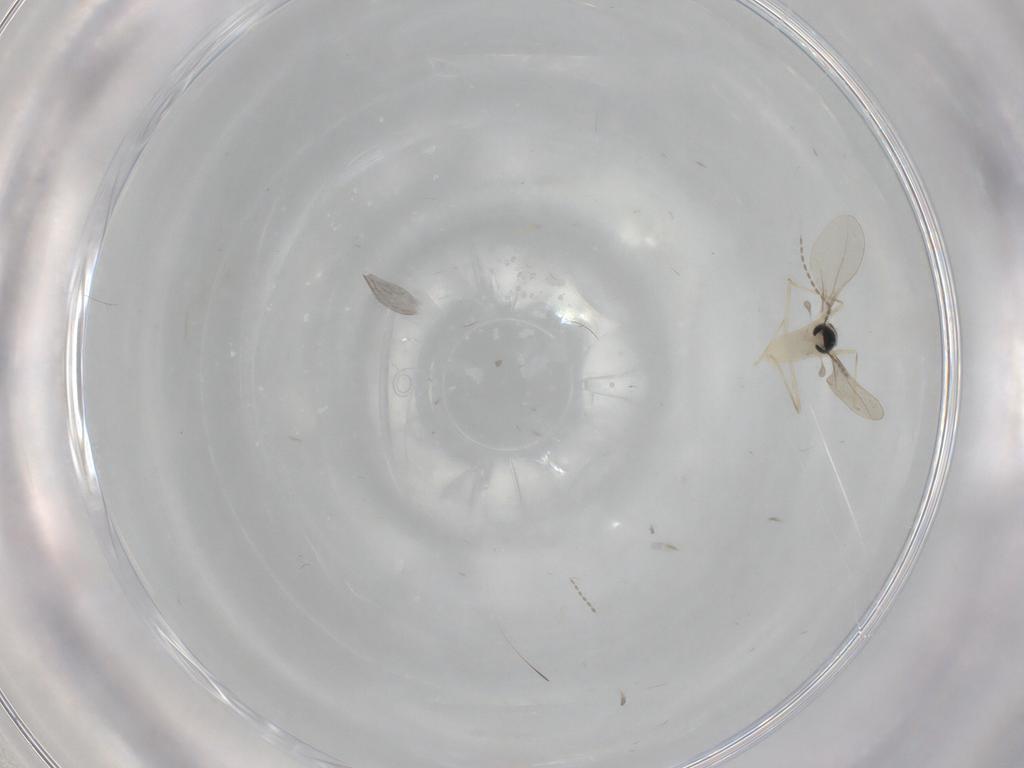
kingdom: Animalia
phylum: Arthropoda
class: Insecta
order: Diptera
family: Cecidomyiidae
